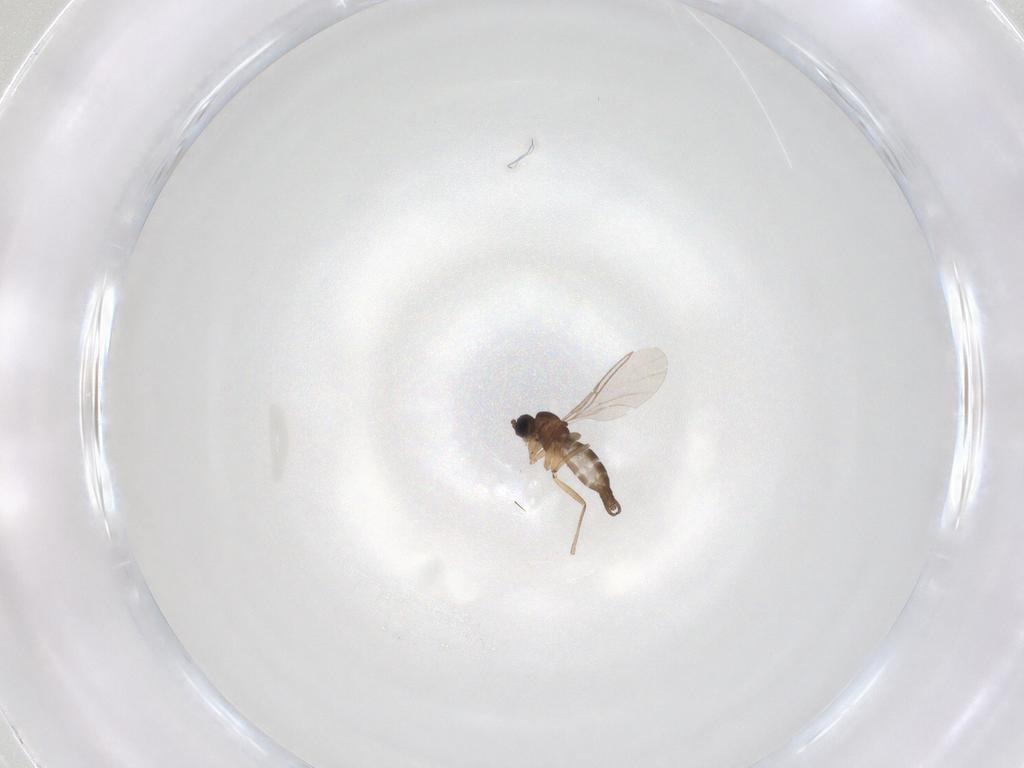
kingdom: Animalia
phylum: Arthropoda
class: Insecta
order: Diptera
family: Sciaridae
